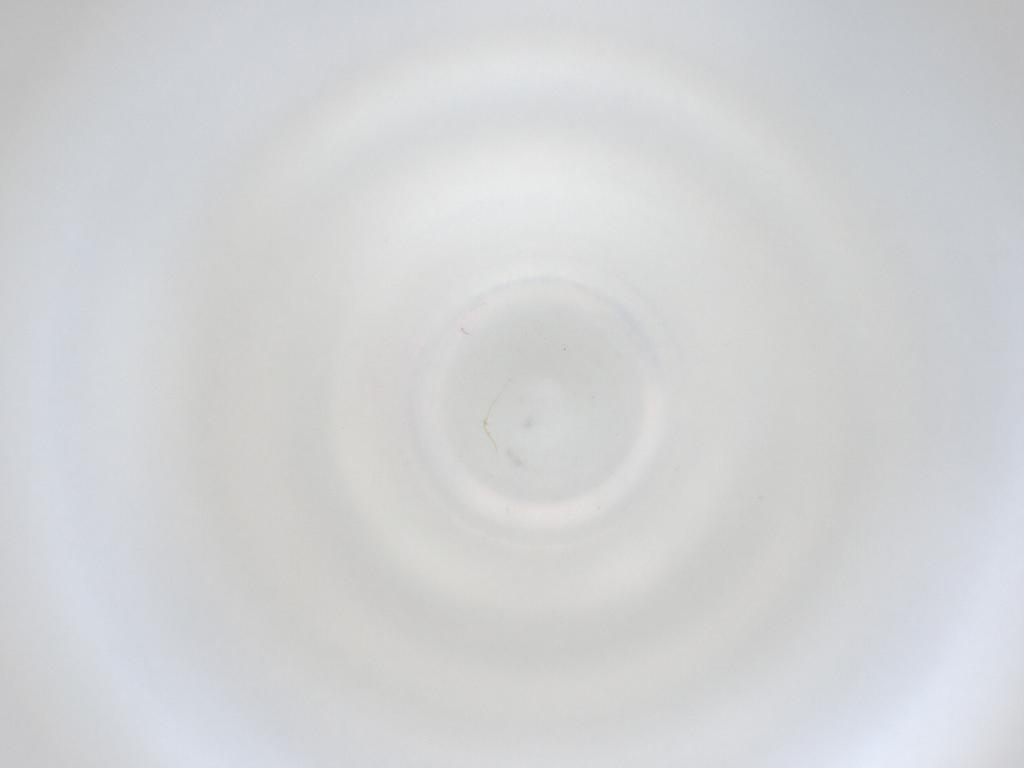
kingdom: Animalia
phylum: Arthropoda
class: Insecta
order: Diptera
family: Cecidomyiidae
